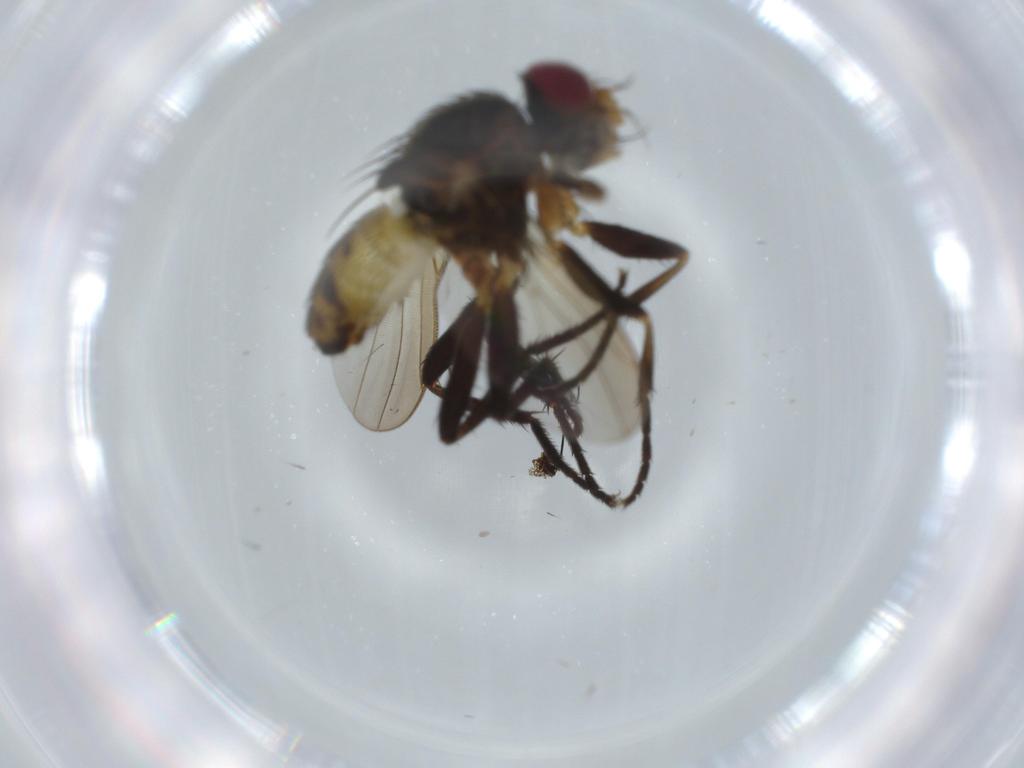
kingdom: Animalia
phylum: Arthropoda
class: Insecta
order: Diptera
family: Anthomyiidae
